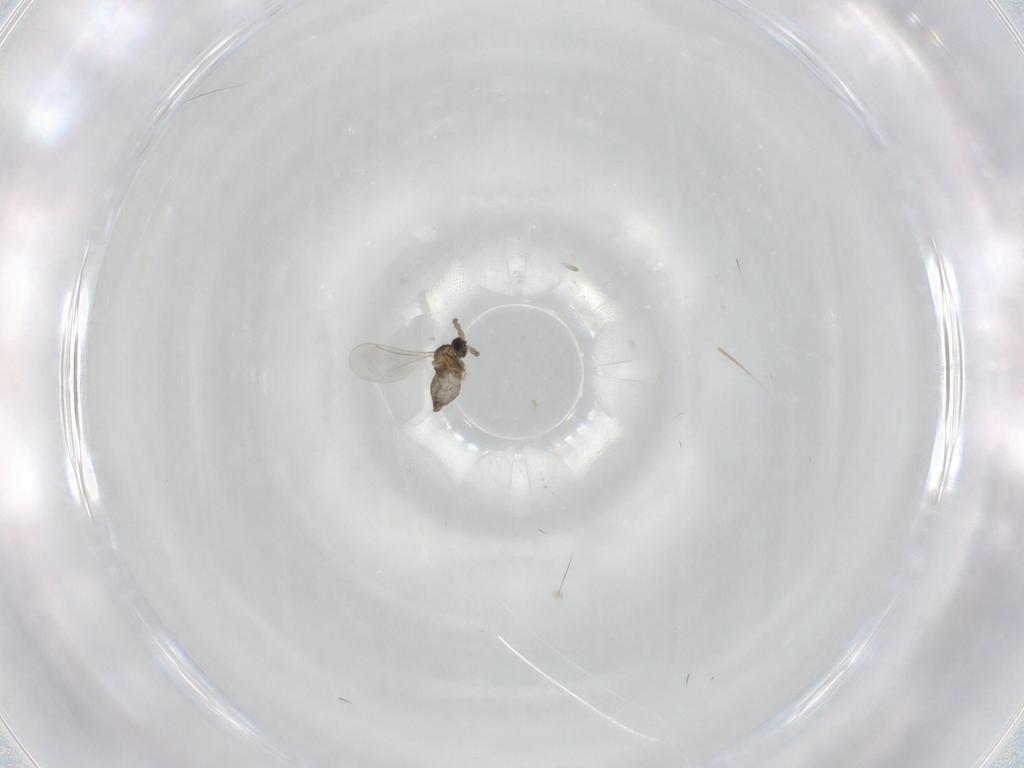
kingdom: Animalia
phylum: Arthropoda
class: Insecta
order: Diptera
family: Cecidomyiidae
